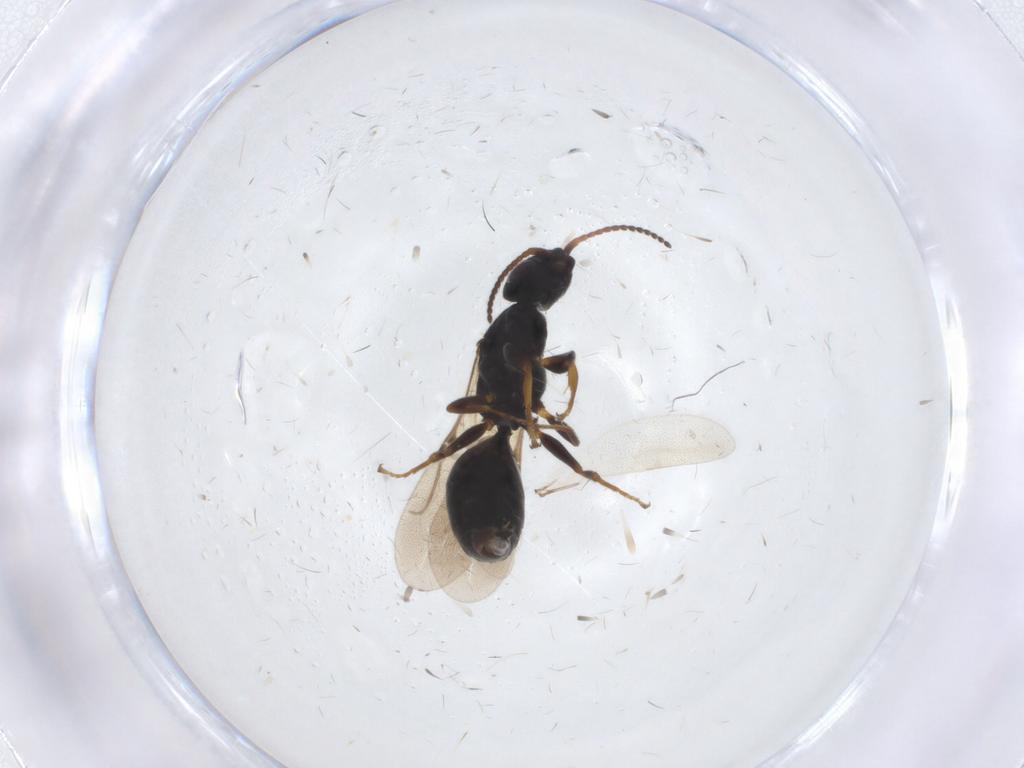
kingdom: Animalia
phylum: Arthropoda
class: Insecta
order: Hymenoptera
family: Bethylidae
